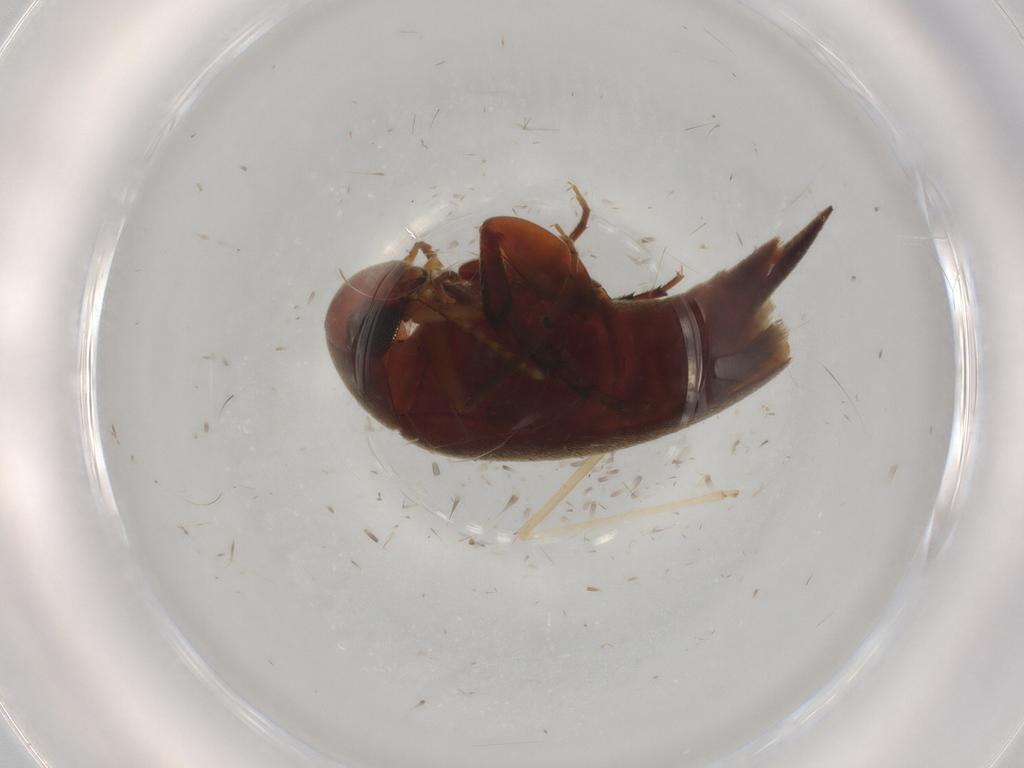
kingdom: Animalia
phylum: Arthropoda
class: Insecta
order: Coleoptera
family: Mordellidae
